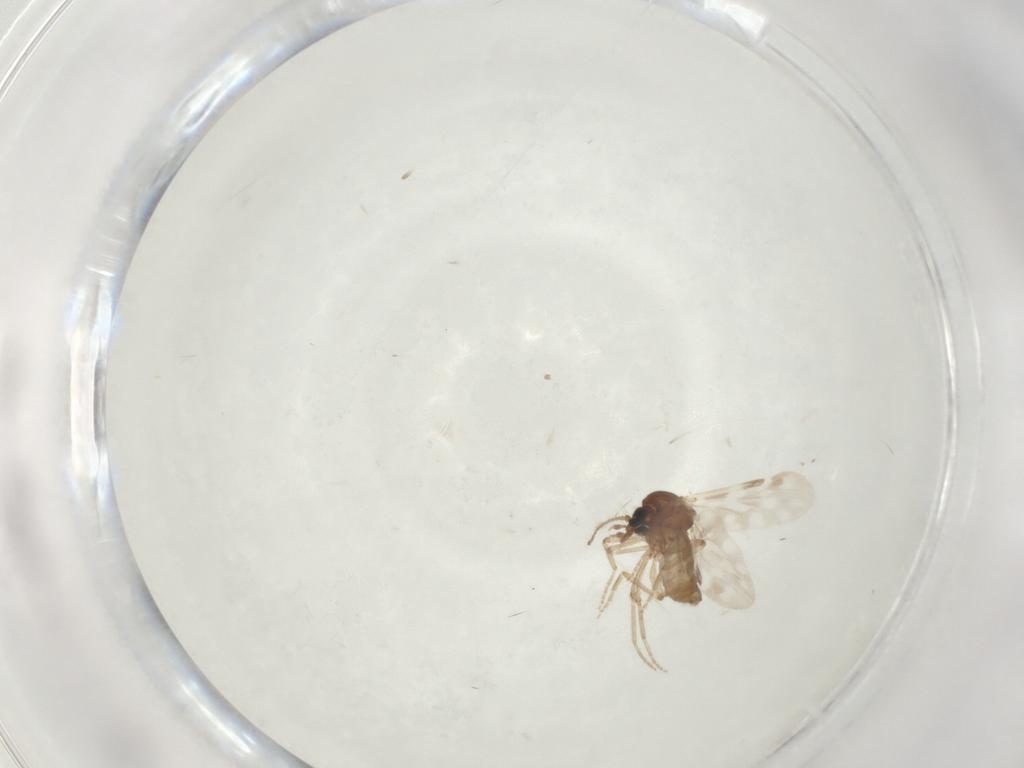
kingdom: Animalia
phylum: Arthropoda
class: Insecta
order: Diptera
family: Ceratopogonidae
